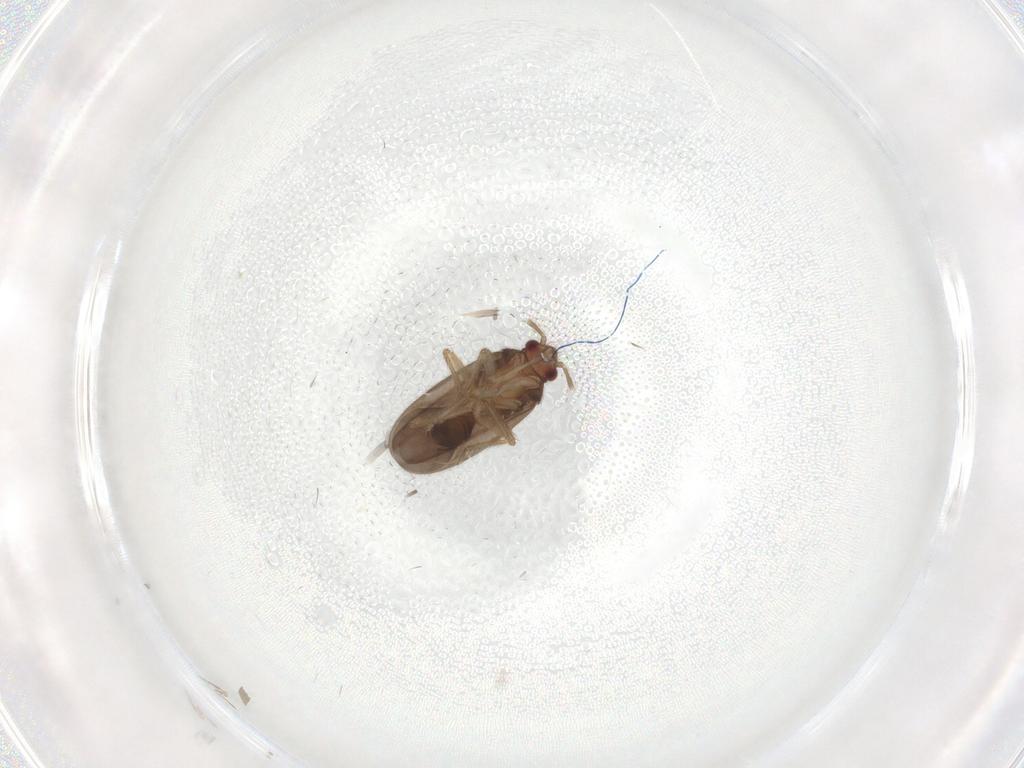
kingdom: Animalia
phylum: Arthropoda
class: Insecta
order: Hemiptera
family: Ceratocombidae
